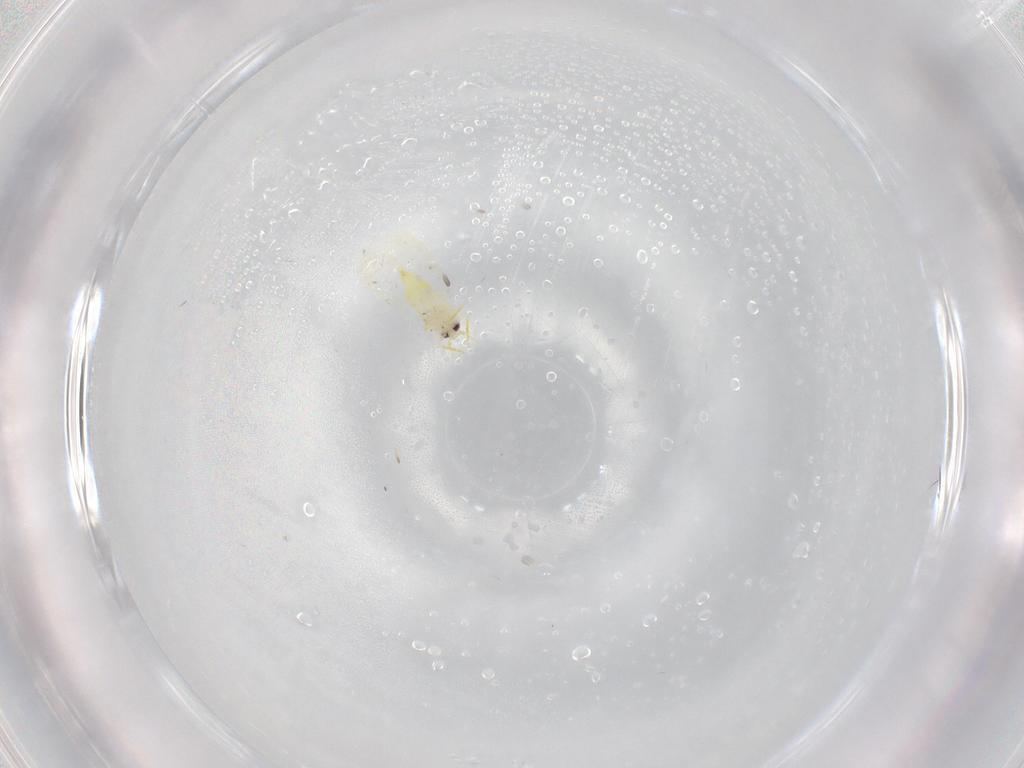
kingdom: Animalia
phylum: Arthropoda
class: Insecta
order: Hemiptera
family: Aleyrodidae
